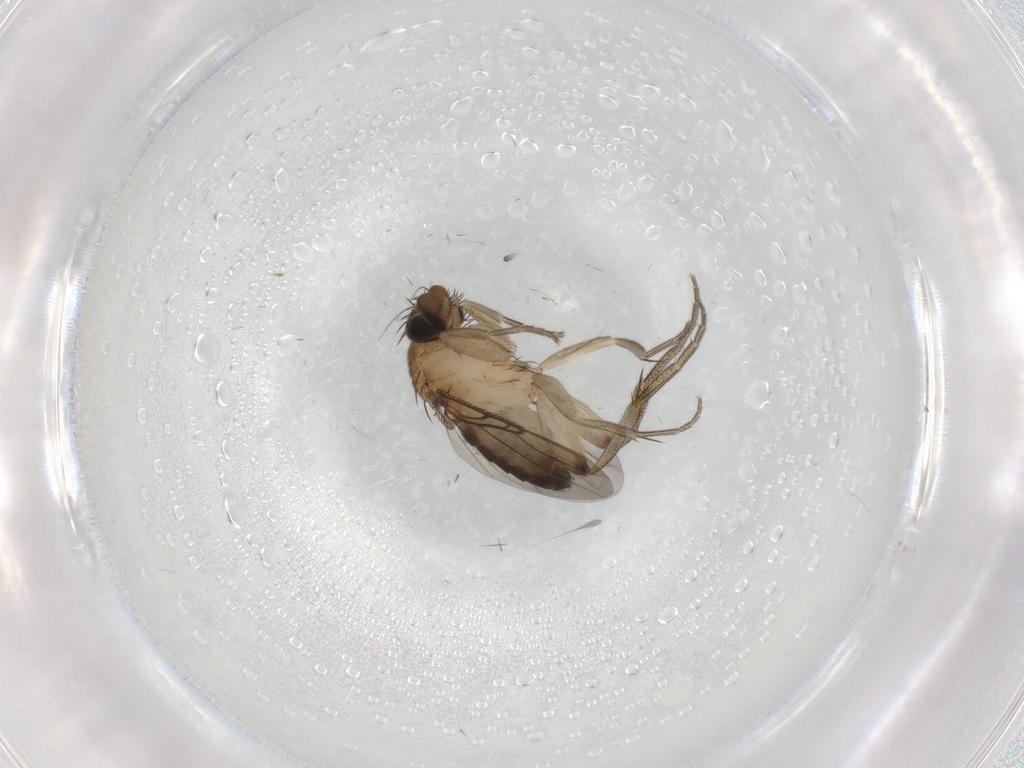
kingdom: Animalia
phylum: Arthropoda
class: Insecta
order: Diptera
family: Phoridae
